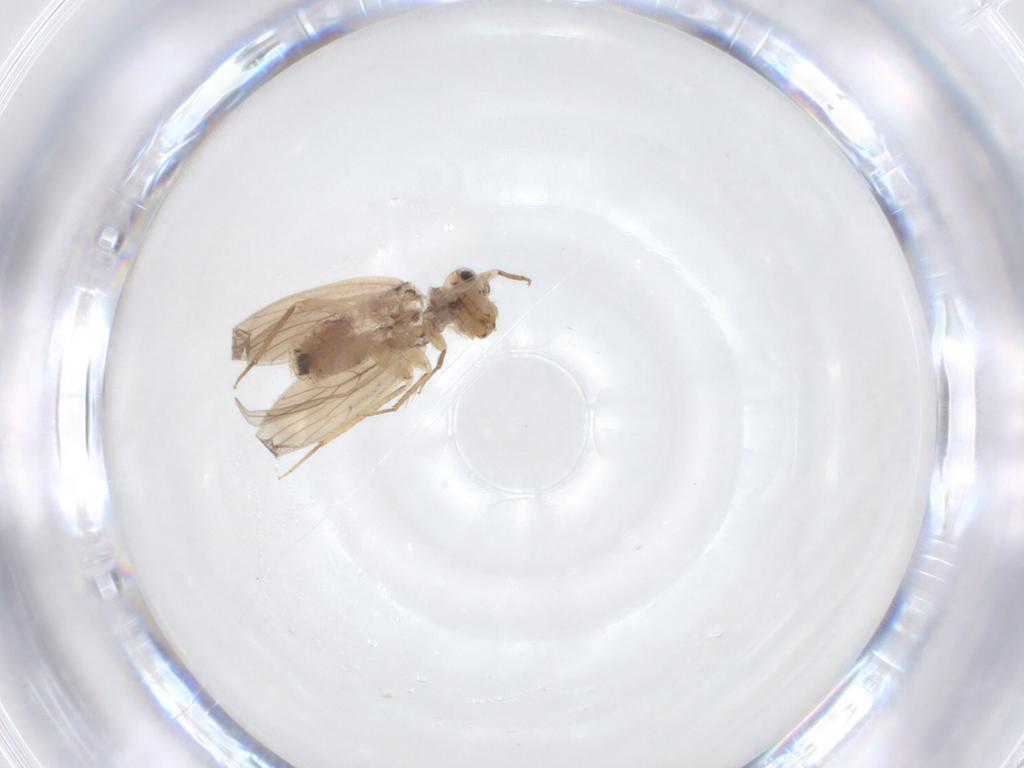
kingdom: Animalia
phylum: Arthropoda
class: Insecta
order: Psocodea
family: Lepidopsocidae
